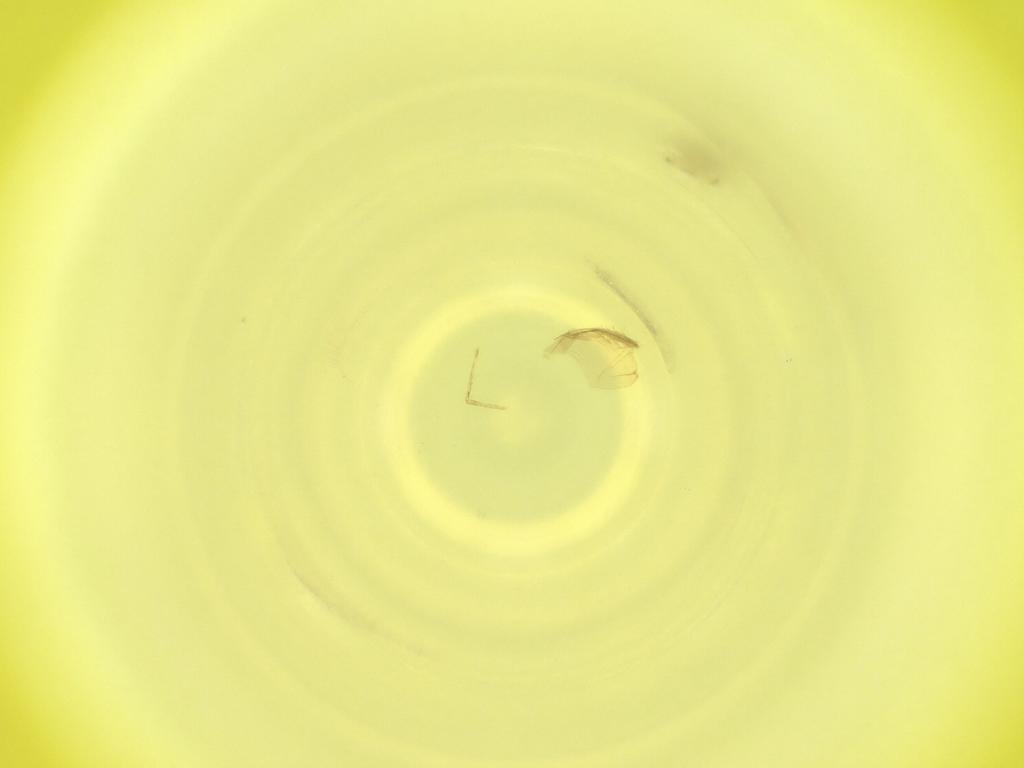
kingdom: Animalia
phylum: Arthropoda
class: Insecta
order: Diptera
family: Cecidomyiidae
